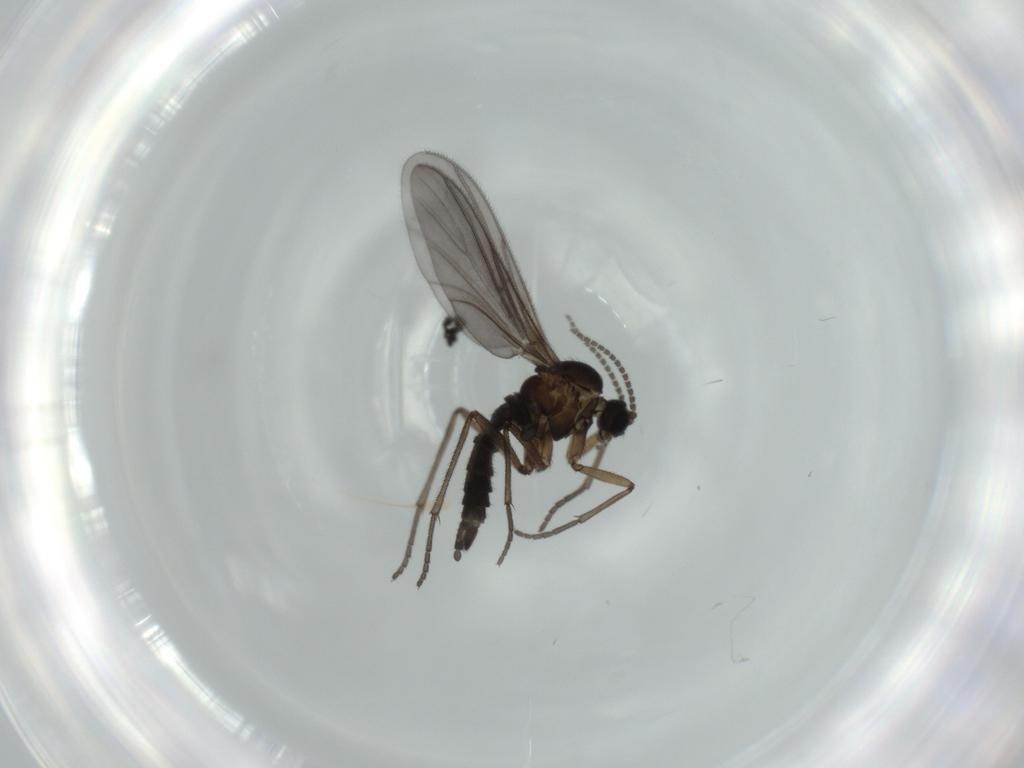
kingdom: Animalia
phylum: Arthropoda
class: Insecta
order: Diptera
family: Sciaridae
